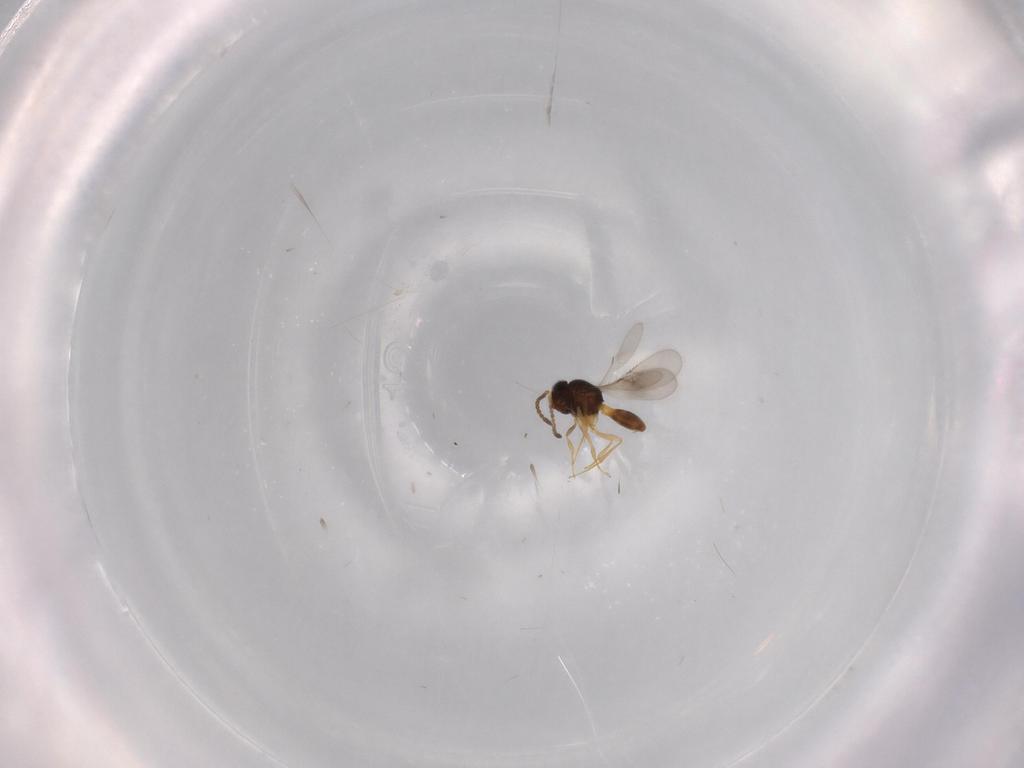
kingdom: Animalia
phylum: Arthropoda
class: Insecta
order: Hymenoptera
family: Scelionidae
